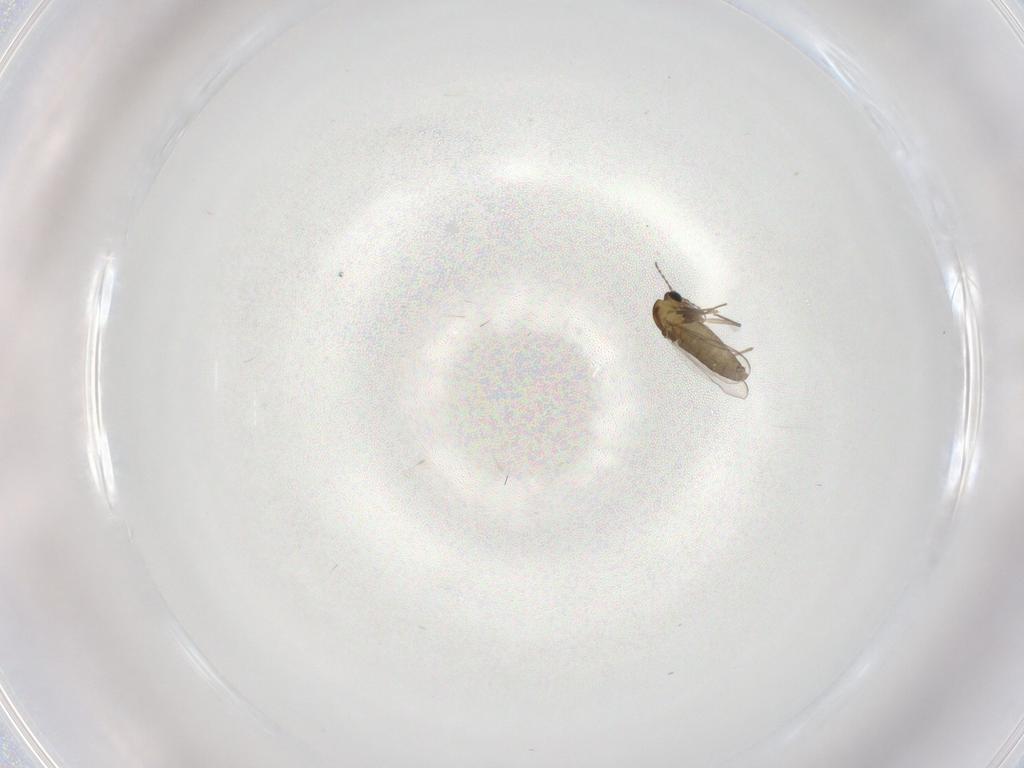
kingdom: Animalia
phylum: Arthropoda
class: Insecta
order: Diptera
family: Chironomidae
